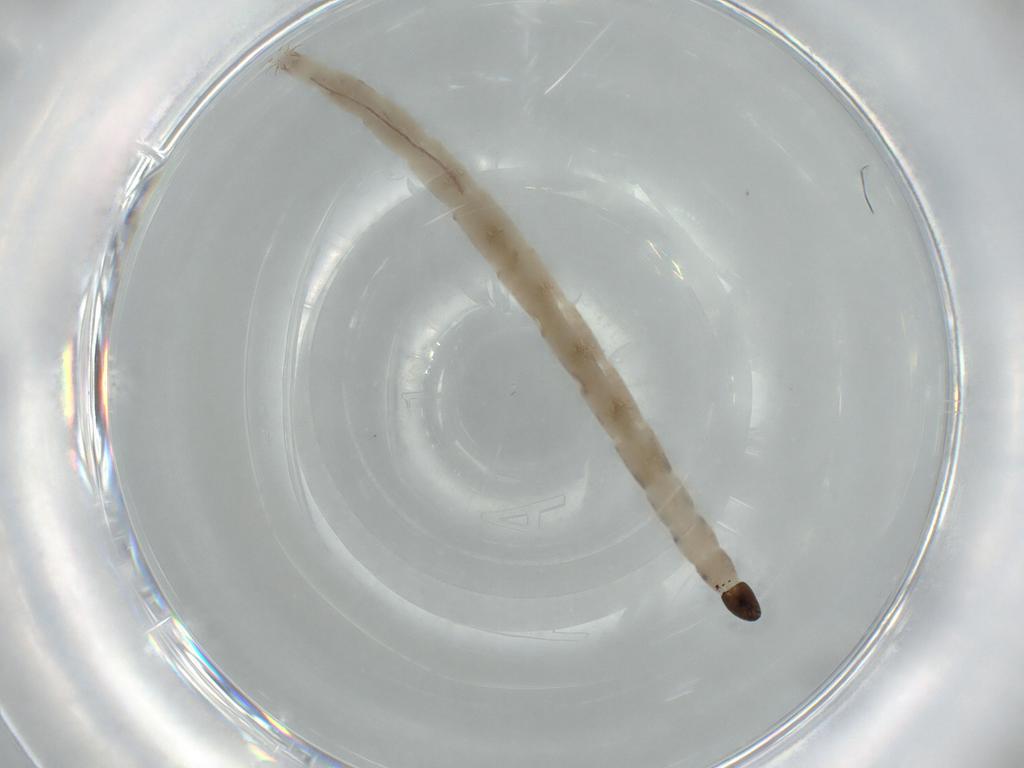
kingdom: Animalia
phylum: Arthropoda
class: Insecta
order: Diptera
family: Ceratopogonidae
